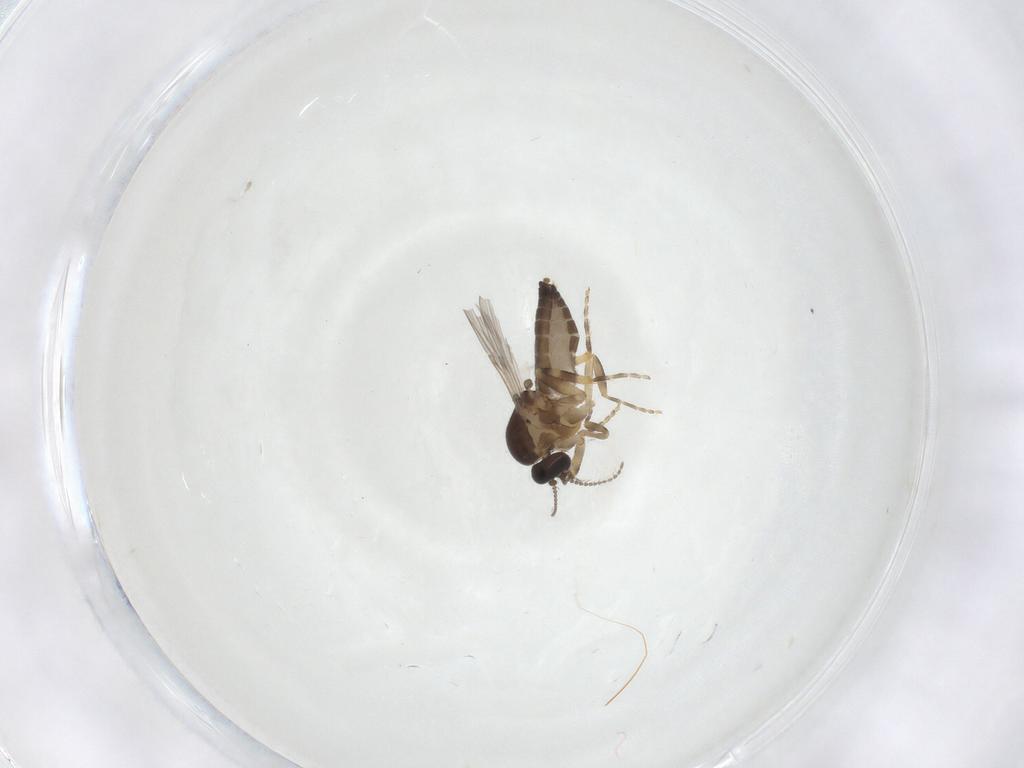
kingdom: Animalia
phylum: Arthropoda
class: Insecta
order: Diptera
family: Ceratopogonidae
